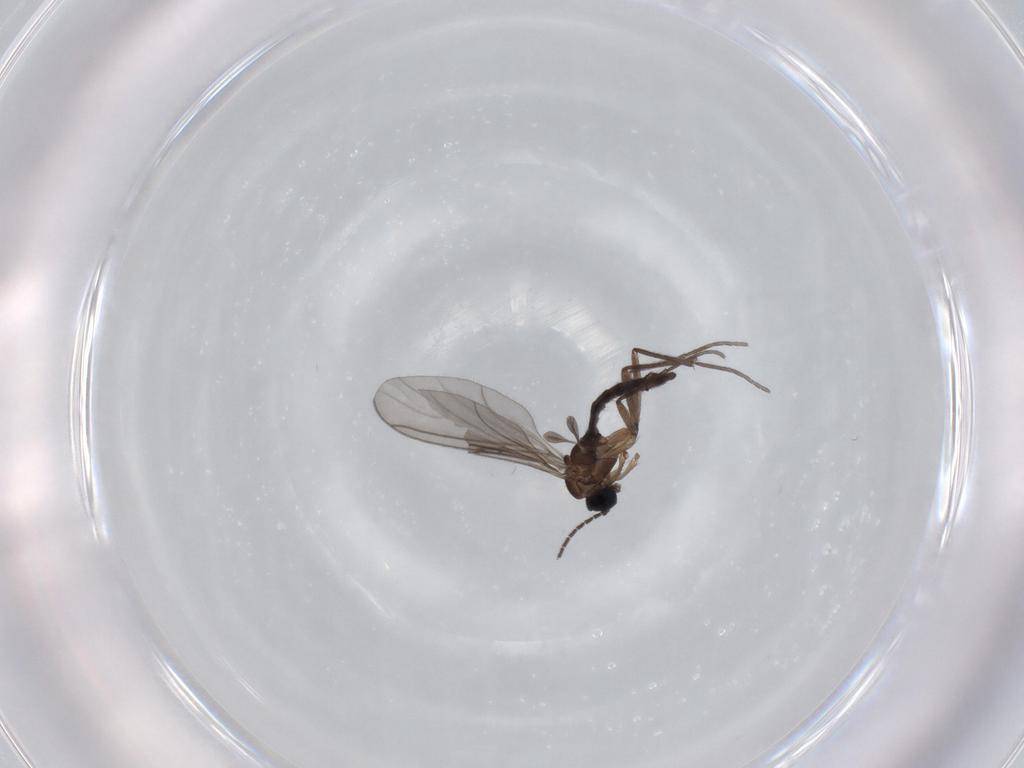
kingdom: Animalia
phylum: Arthropoda
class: Insecta
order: Diptera
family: Sciaridae
